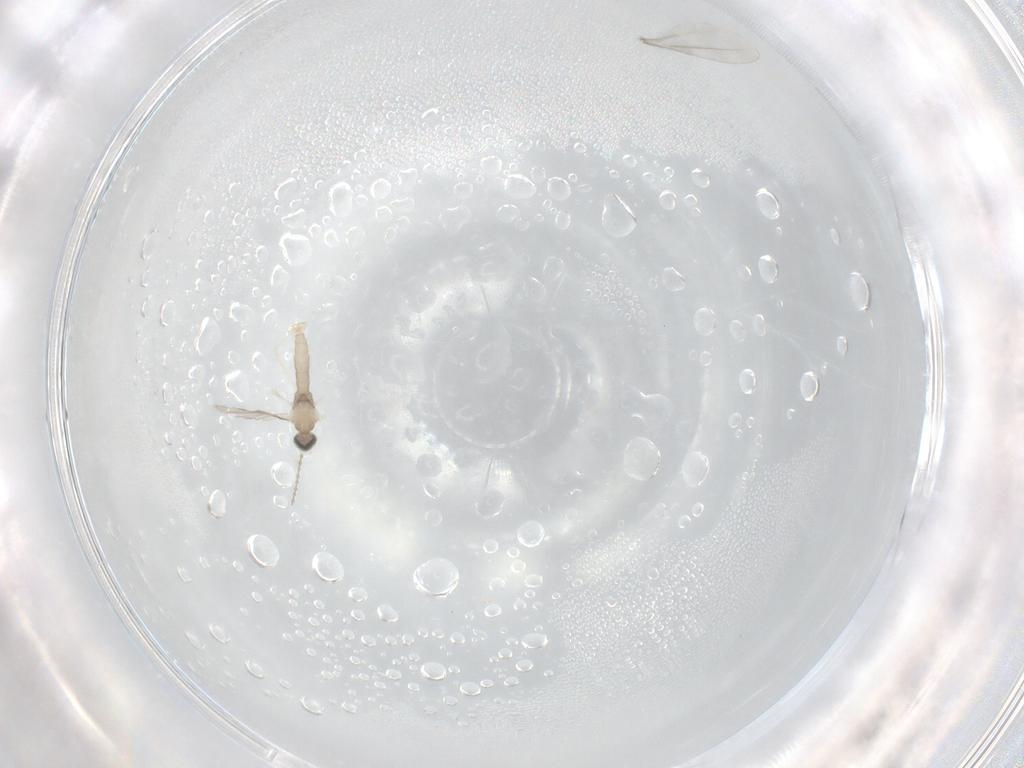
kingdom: Animalia
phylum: Arthropoda
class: Insecta
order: Diptera
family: Cecidomyiidae
